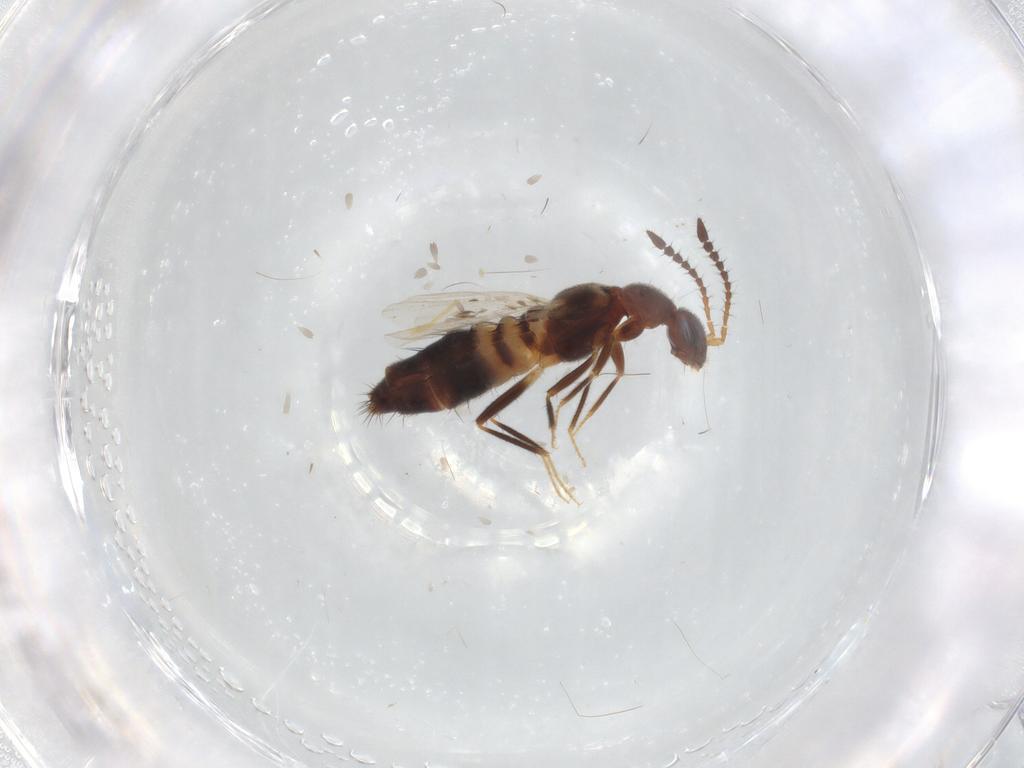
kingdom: Animalia
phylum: Arthropoda
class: Insecta
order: Coleoptera
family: Staphylinidae
